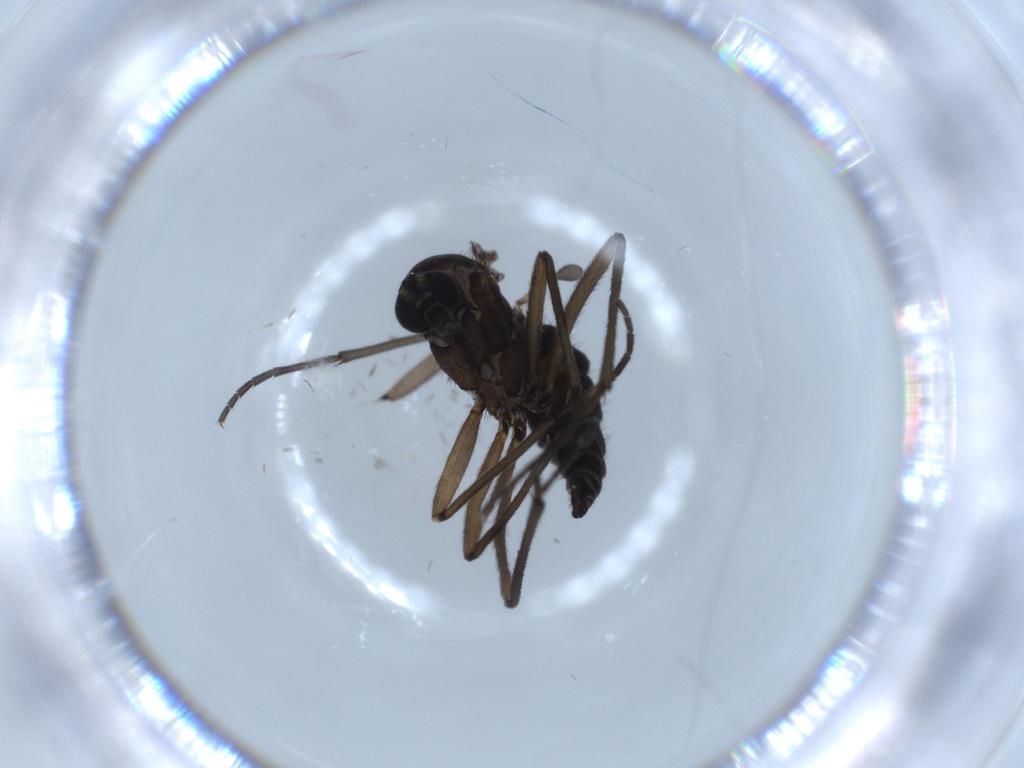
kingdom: Animalia
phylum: Arthropoda
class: Insecta
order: Diptera
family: Sciaridae
